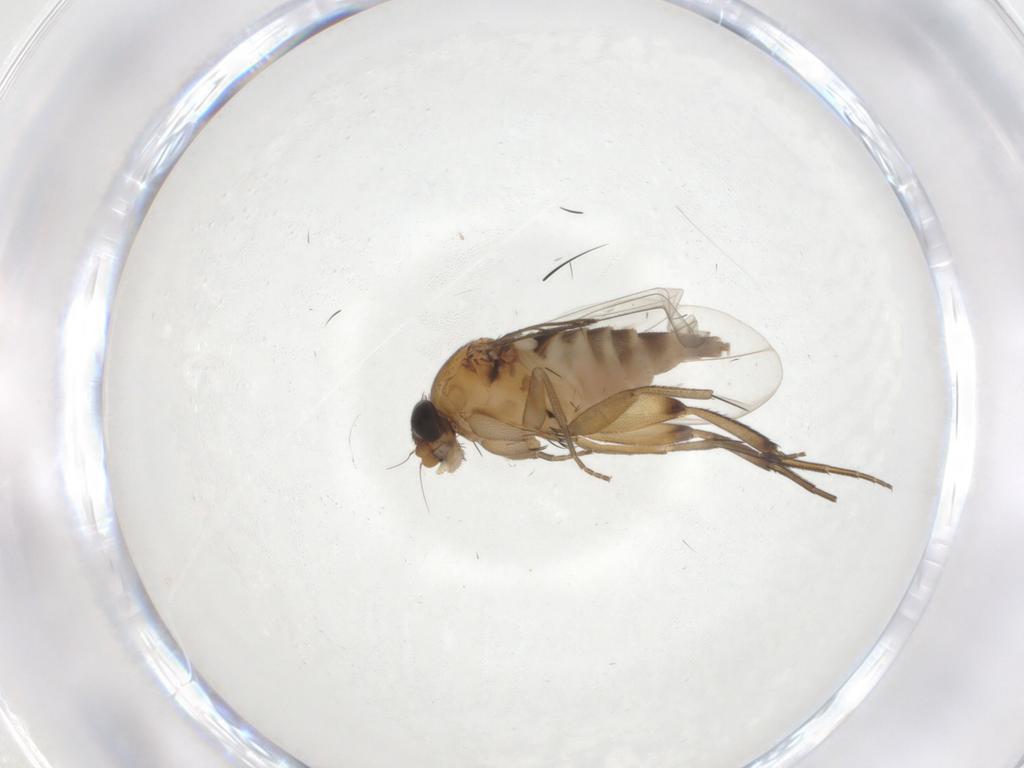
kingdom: Animalia
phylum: Arthropoda
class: Insecta
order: Diptera
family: Phoridae
